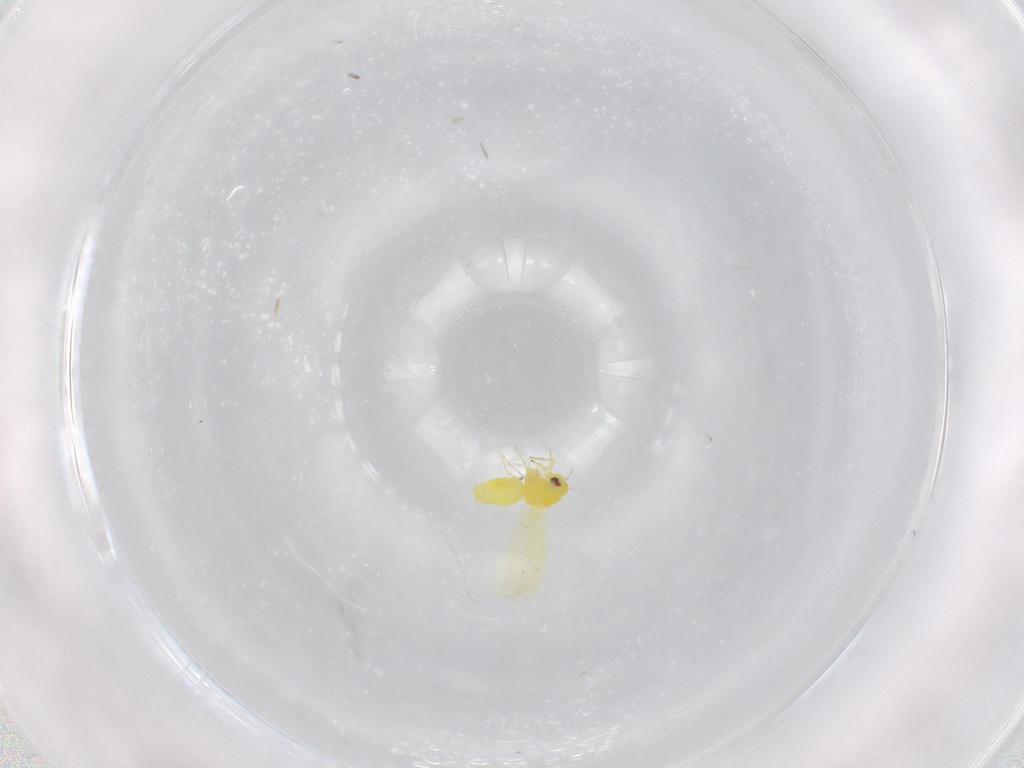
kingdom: Animalia
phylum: Arthropoda
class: Insecta
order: Hemiptera
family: Aleyrodidae
